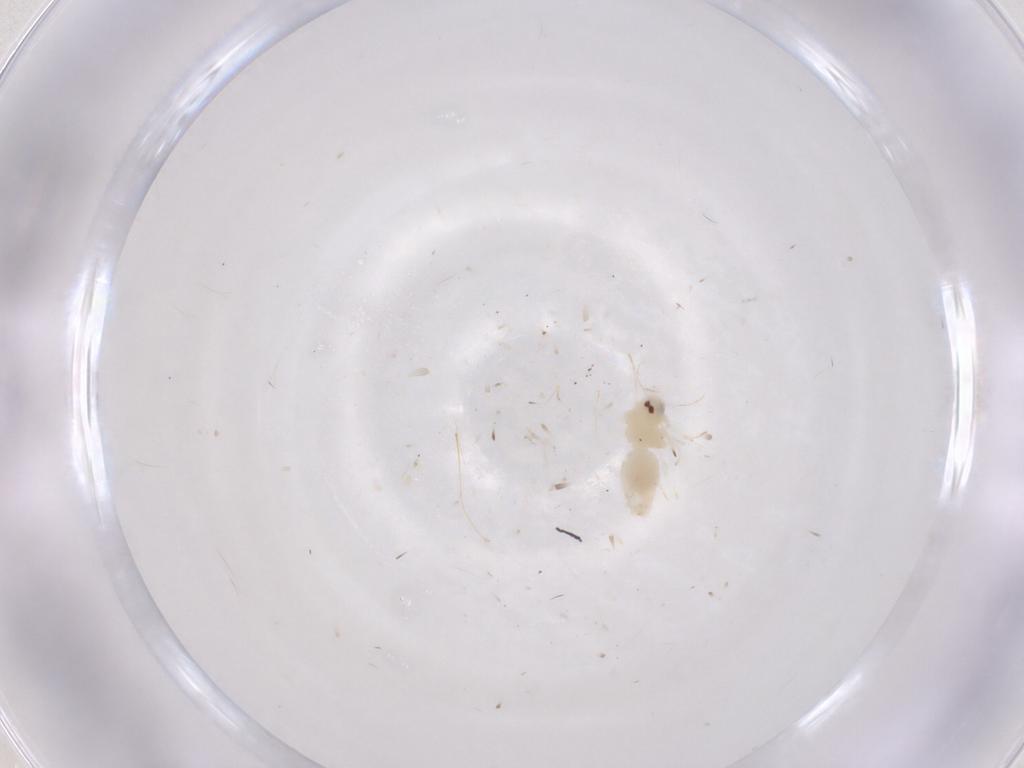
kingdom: Animalia
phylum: Arthropoda
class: Insecta
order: Hemiptera
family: Aleyrodidae
